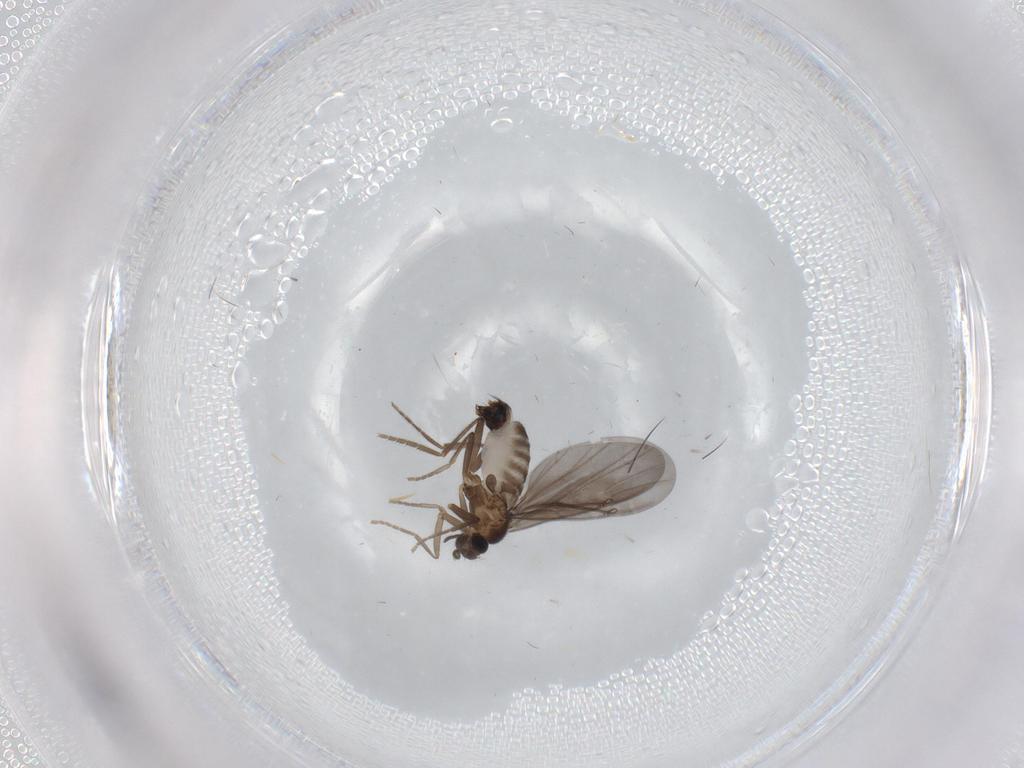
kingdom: Animalia
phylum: Arthropoda
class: Insecta
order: Diptera
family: Phoridae
